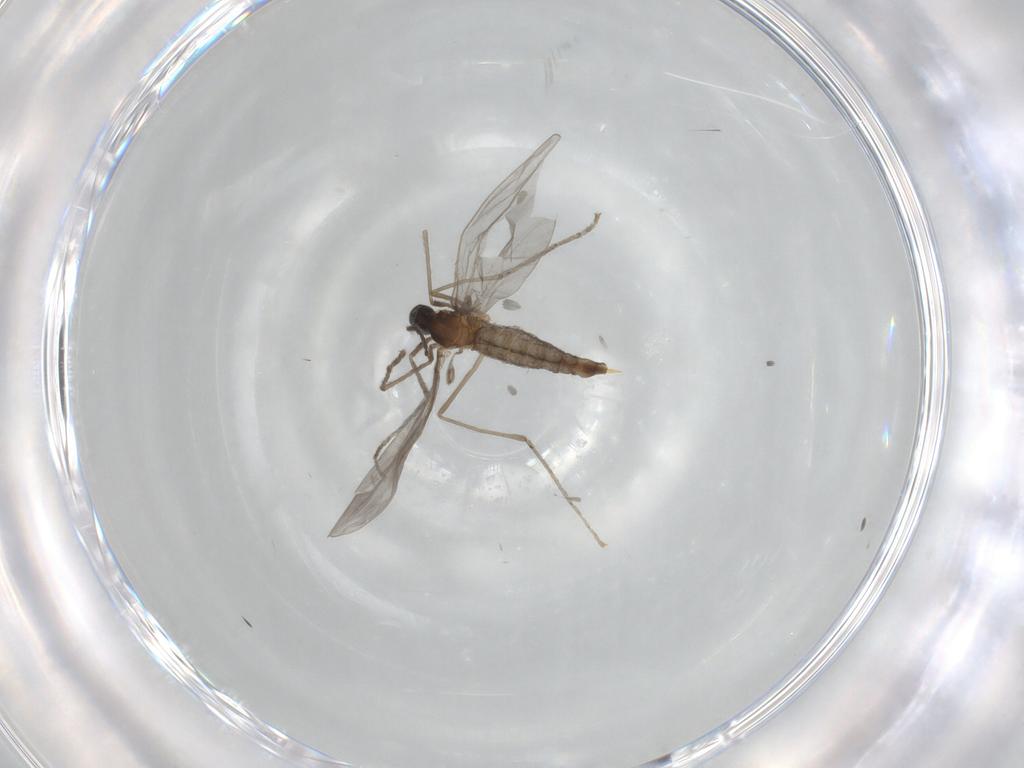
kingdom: Animalia
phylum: Arthropoda
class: Insecta
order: Diptera
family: Cecidomyiidae
